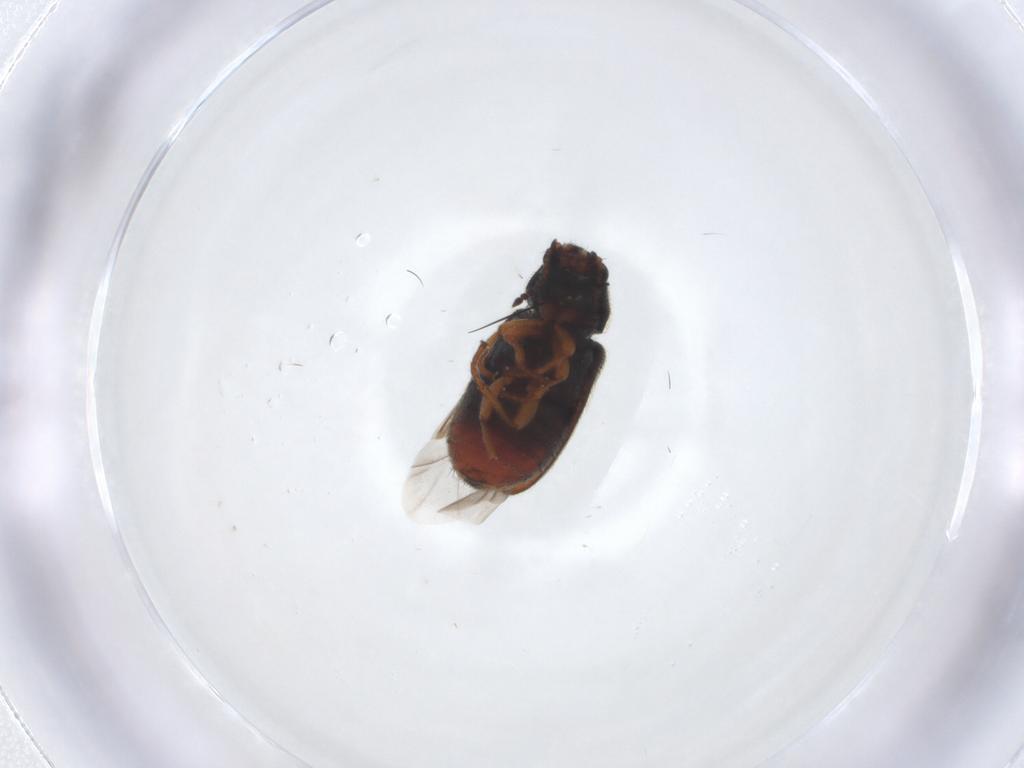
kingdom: Animalia
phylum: Arthropoda
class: Insecta
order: Coleoptera
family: Melyridae
